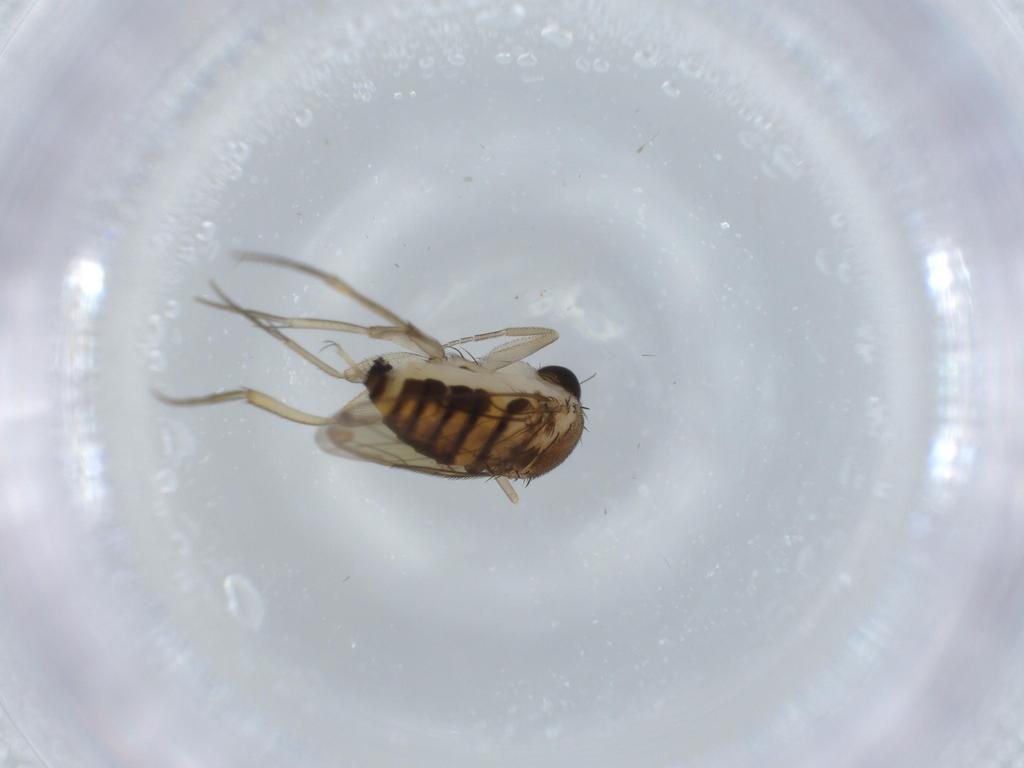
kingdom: Animalia
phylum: Arthropoda
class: Insecta
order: Diptera
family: Phoridae
